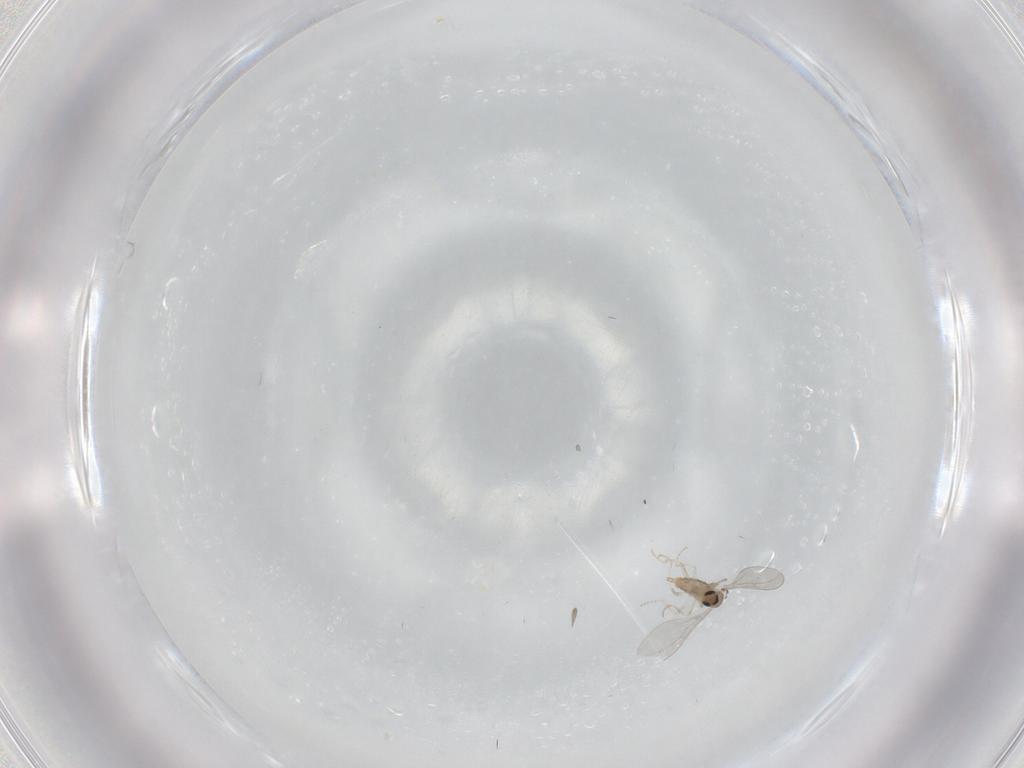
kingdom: Animalia
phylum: Arthropoda
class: Insecta
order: Diptera
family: Cecidomyiidae
